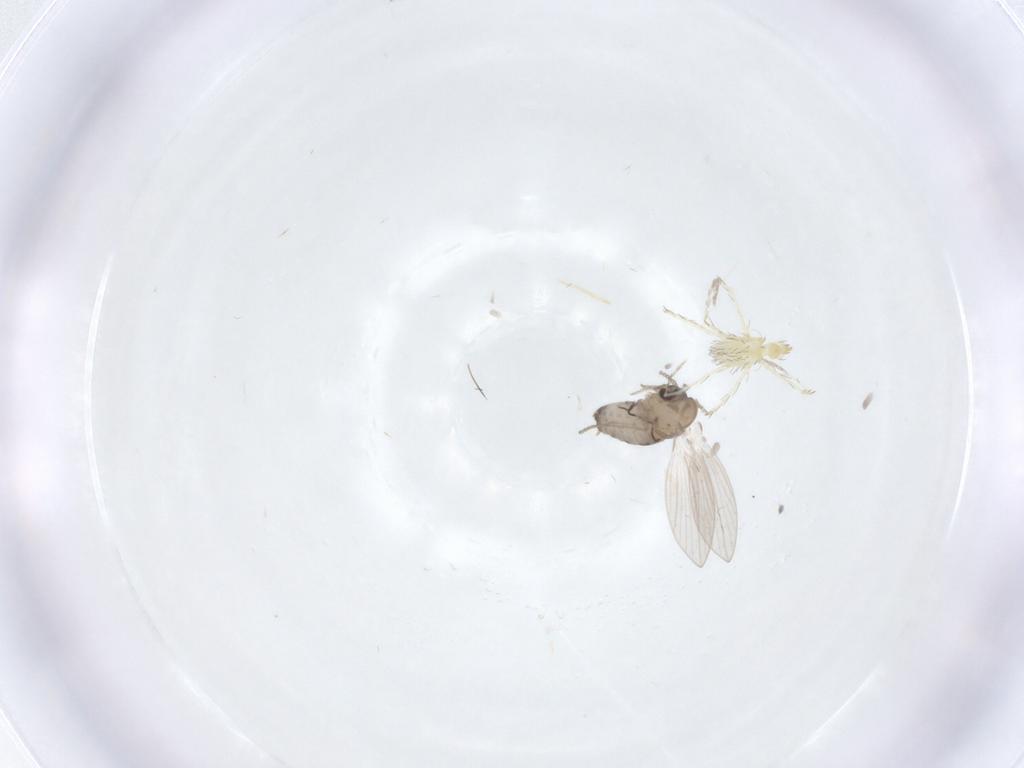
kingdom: Animalia
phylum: Arthropoda
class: Insecta
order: Diptera
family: Psychodidae
